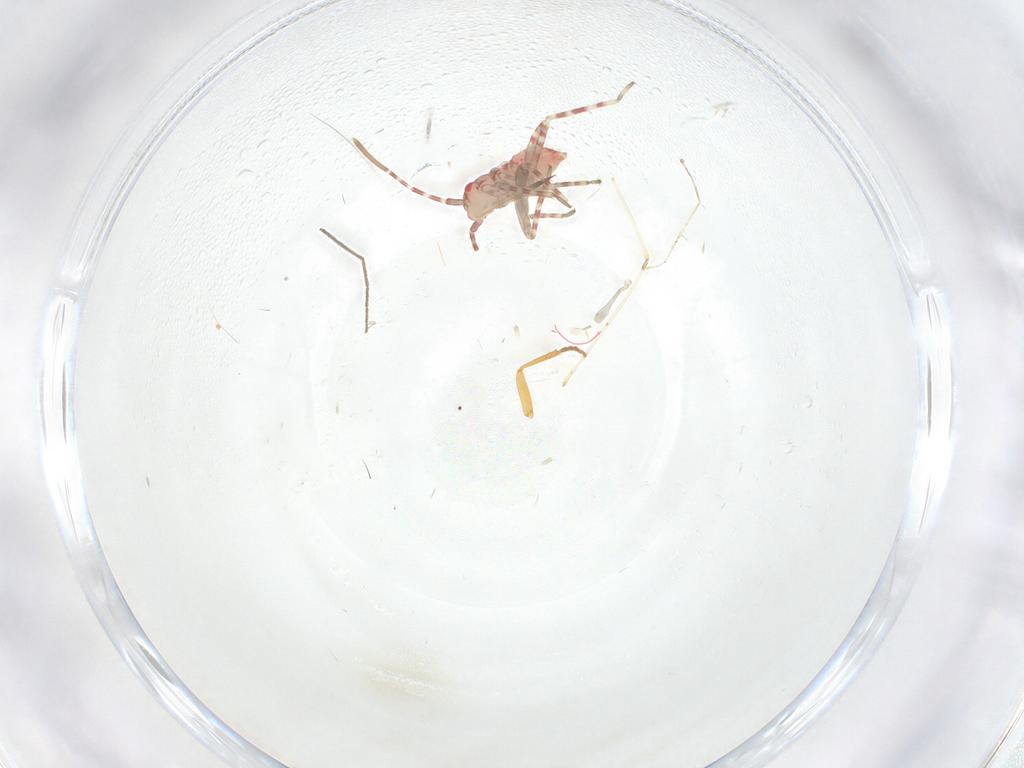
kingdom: Animalia
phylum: Arthropoda
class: Insecta
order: Hemiptera
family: Miridae
